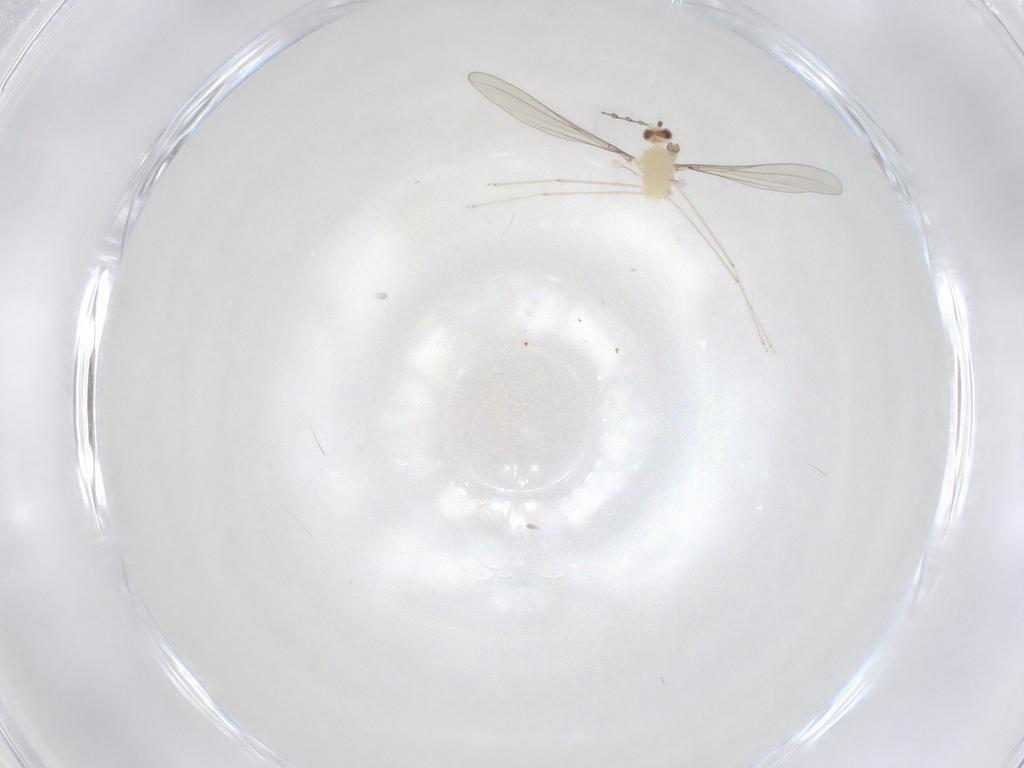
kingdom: Animalia
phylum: Arthropoda
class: Insecta
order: Diptera
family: Cecidomyiidae
